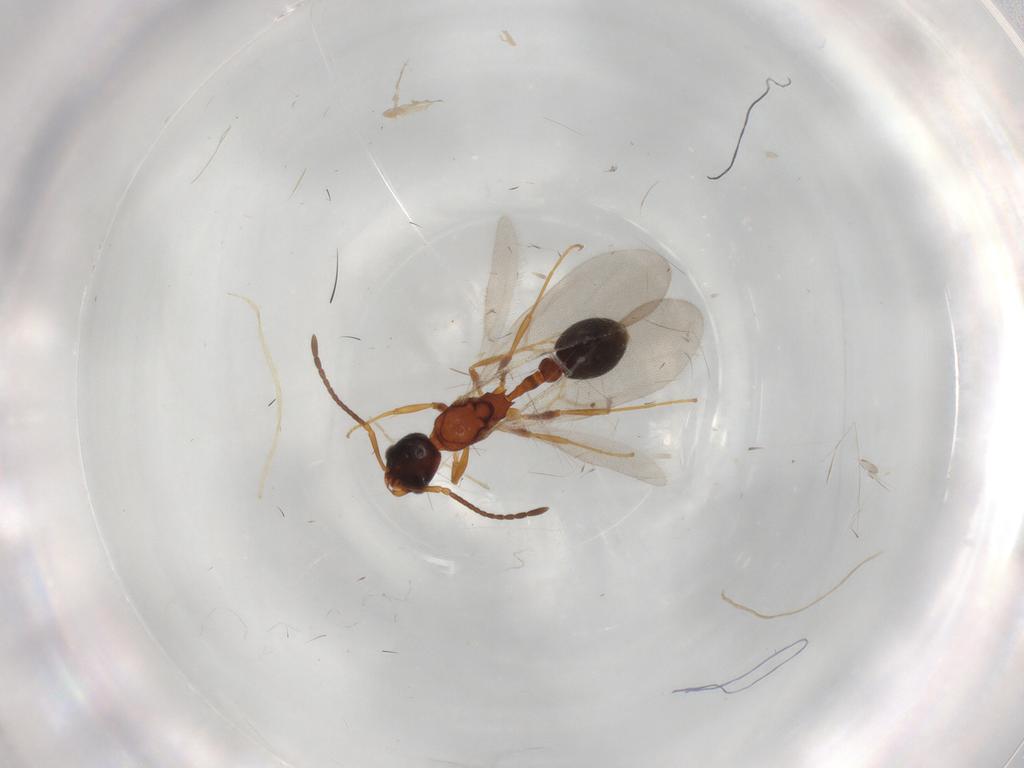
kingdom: Animalia
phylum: Arthropoda
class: Insecta
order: Hymenoptera
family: Formicidae
